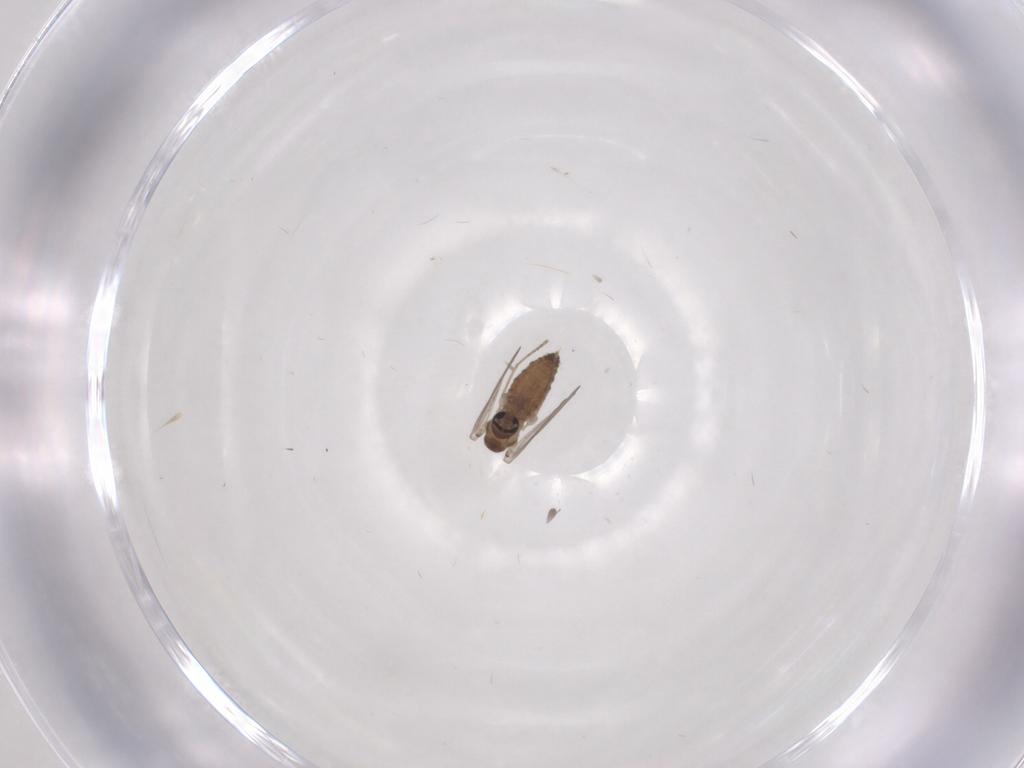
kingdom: Animalia
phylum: Arthropoda
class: Insecta
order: Diptera
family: Psychodidae
